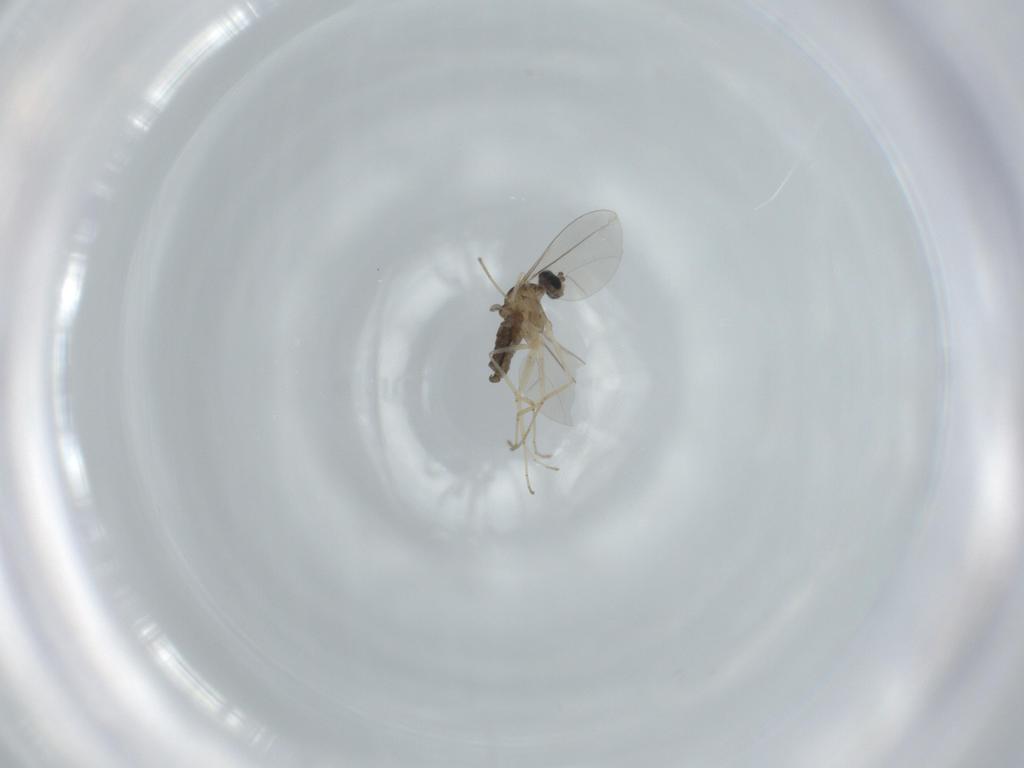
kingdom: Animalia
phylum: Arthropoda
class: Insecta
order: Diptera
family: Cecidomyiidae
